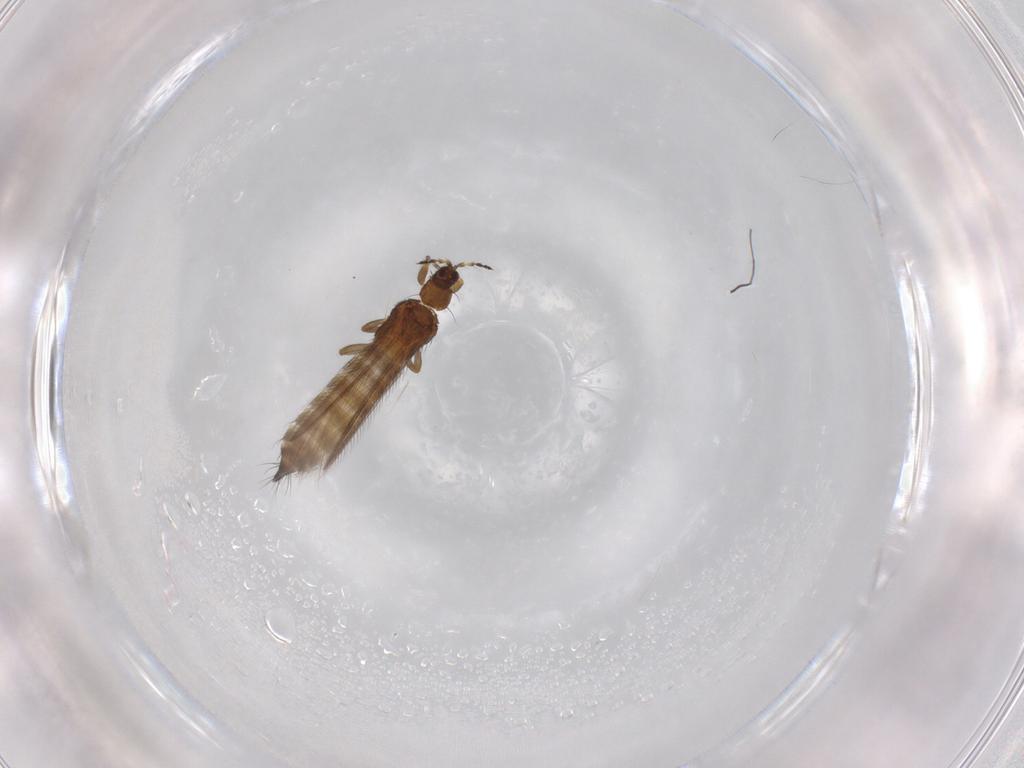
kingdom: Animalia
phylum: Arthropoda
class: Insecta
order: Thysanoptera
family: Thripidae
